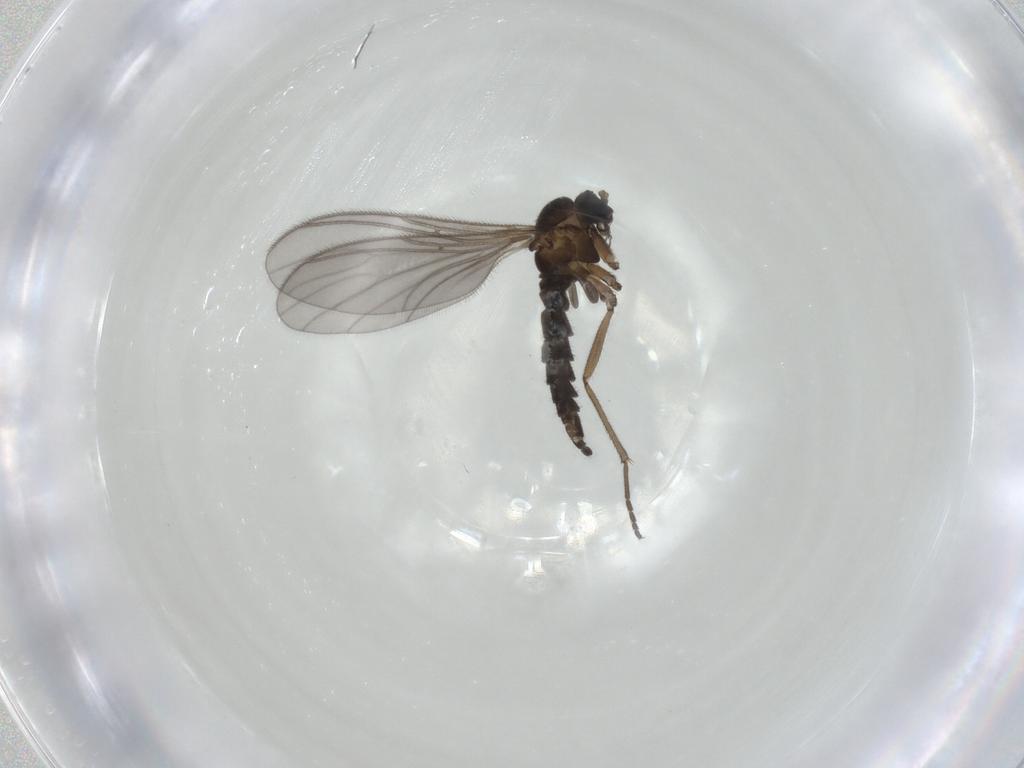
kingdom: Animalia
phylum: Arthropoda
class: Insecta
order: Diptera
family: Sciaridae
